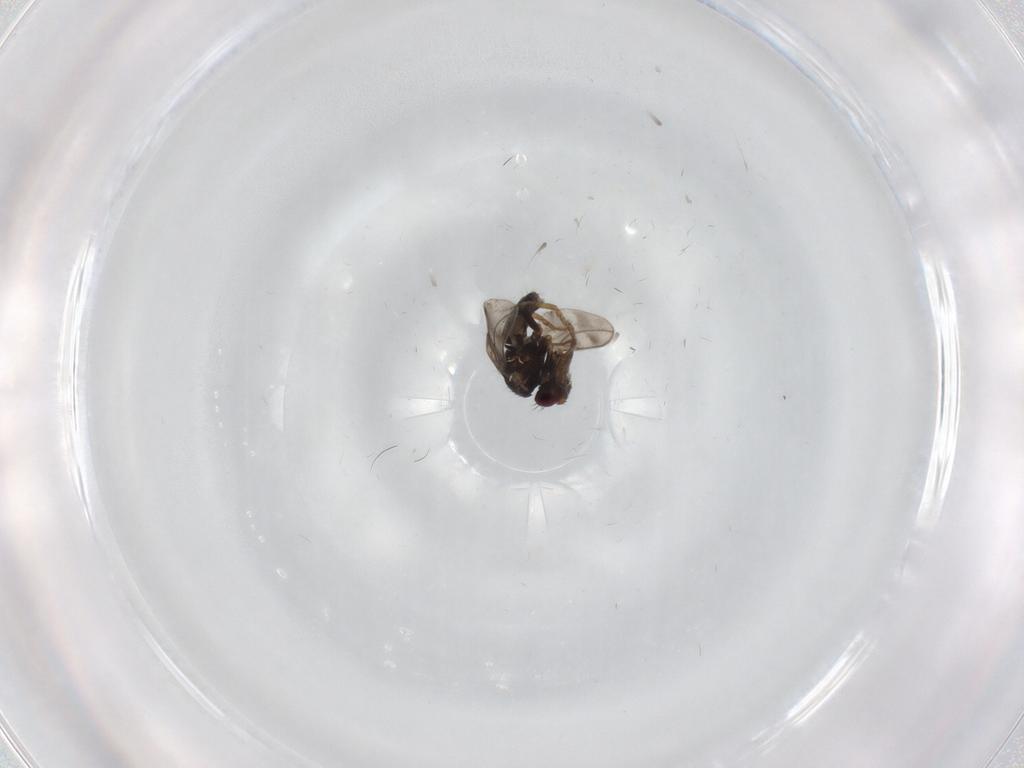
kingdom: Animalia
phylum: Arthropoda
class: Insecta
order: Diptera
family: Sphaeroceridae
